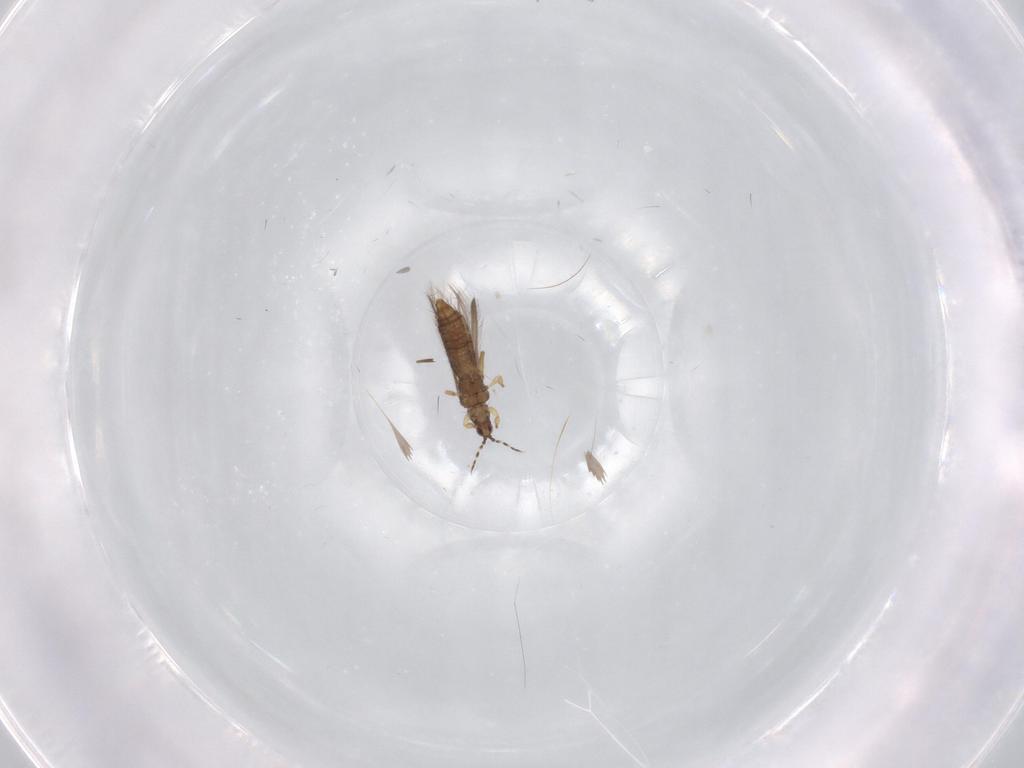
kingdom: Animalia
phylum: Arthropoda
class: Insecta
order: Thysanoptera
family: Thripidae
